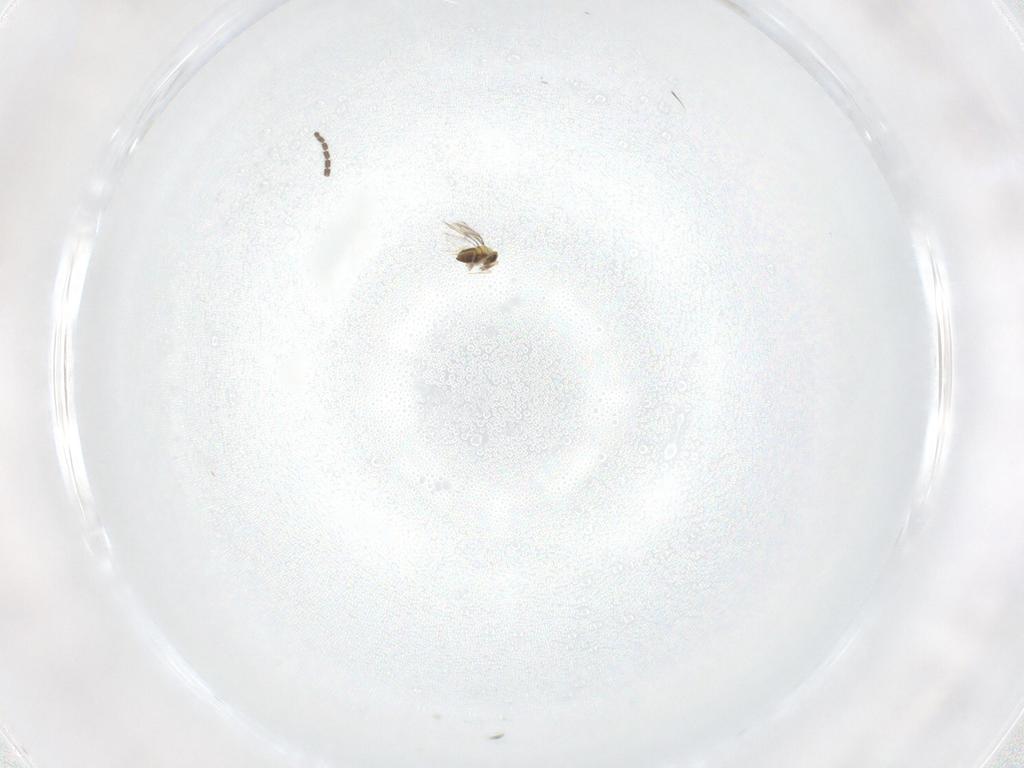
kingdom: Animalia
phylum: Arthropoda
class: Insecta
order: Hymenoptera
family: Trichogrammatidae
